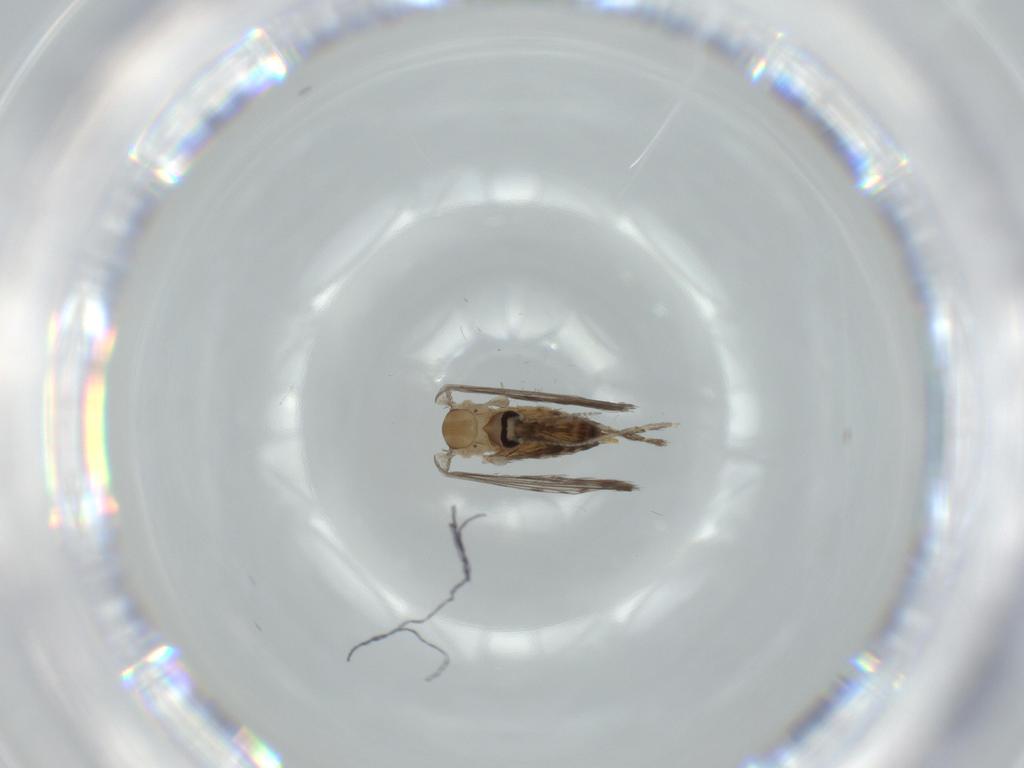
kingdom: Animalia
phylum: Arthropoda
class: Insecta
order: Diptera
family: Psychodidae
